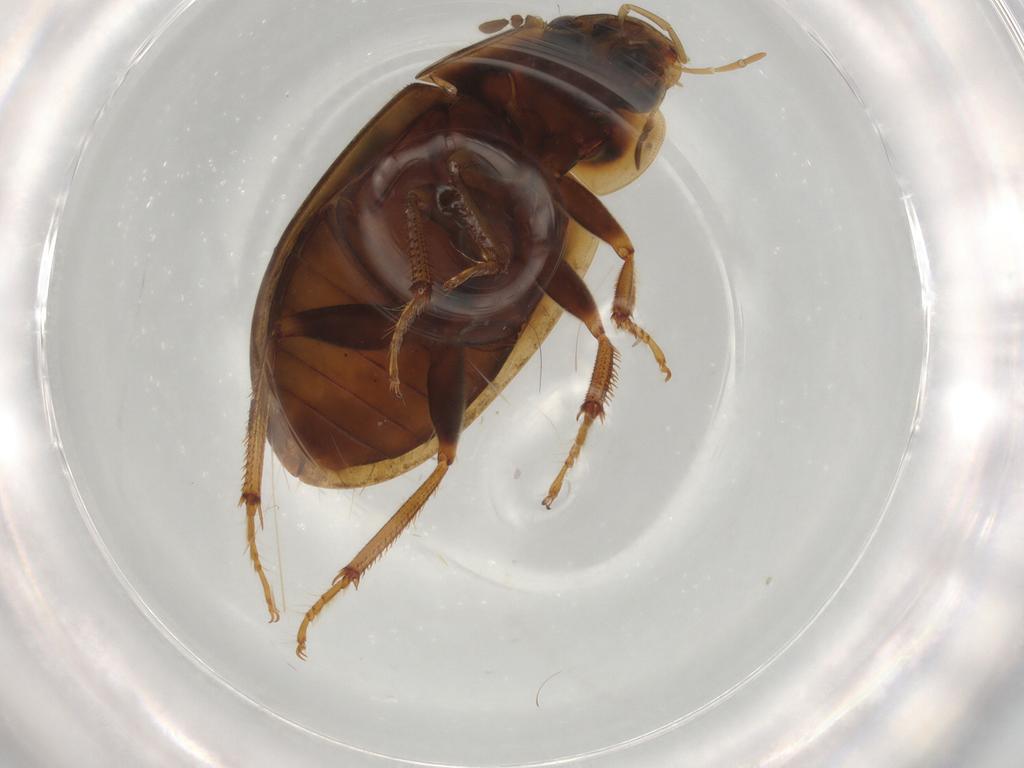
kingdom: Animalia
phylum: Arthropoda
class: Insecta
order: Coleoptera
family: Hydrophilidae
